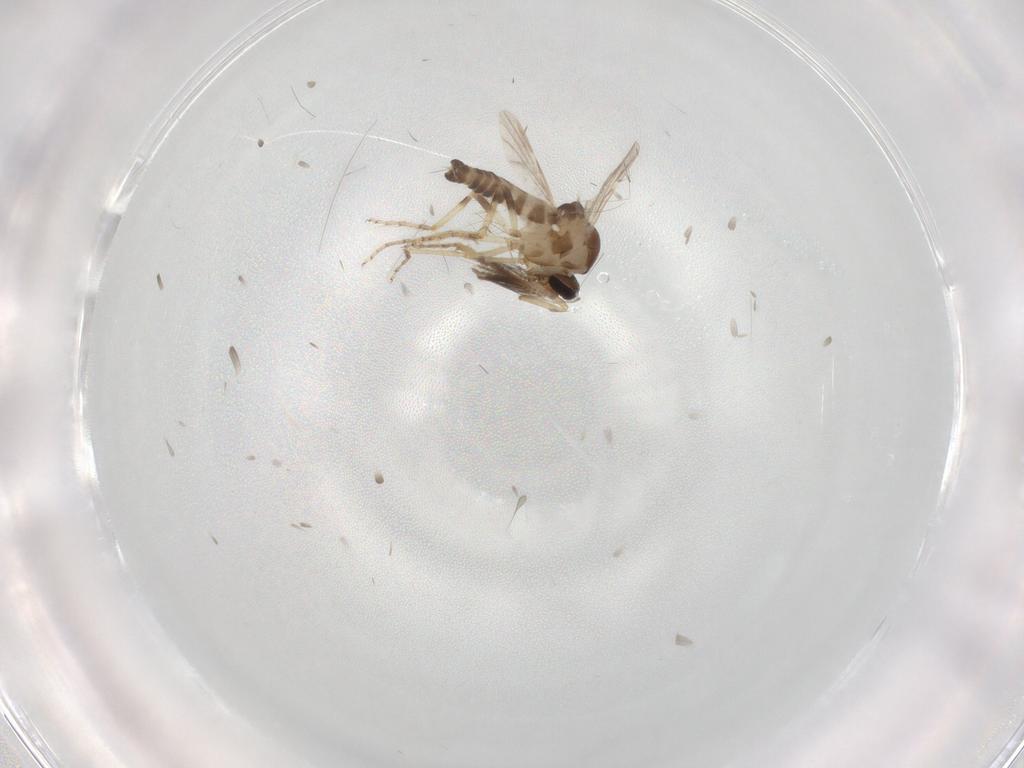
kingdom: Animalia
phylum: Arthropoda
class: Insecta
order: Diptera
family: Ceratopogonidae
